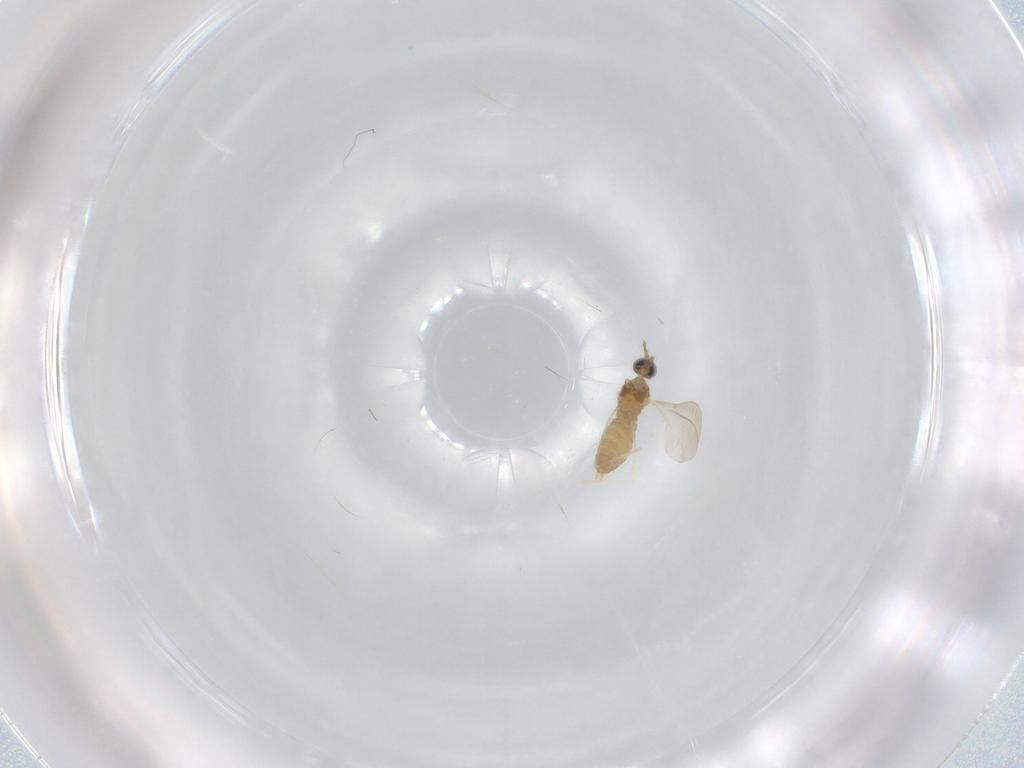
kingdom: Animalia
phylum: Arthropoda
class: Insecta
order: Diptera
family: Cecidomyiidae
